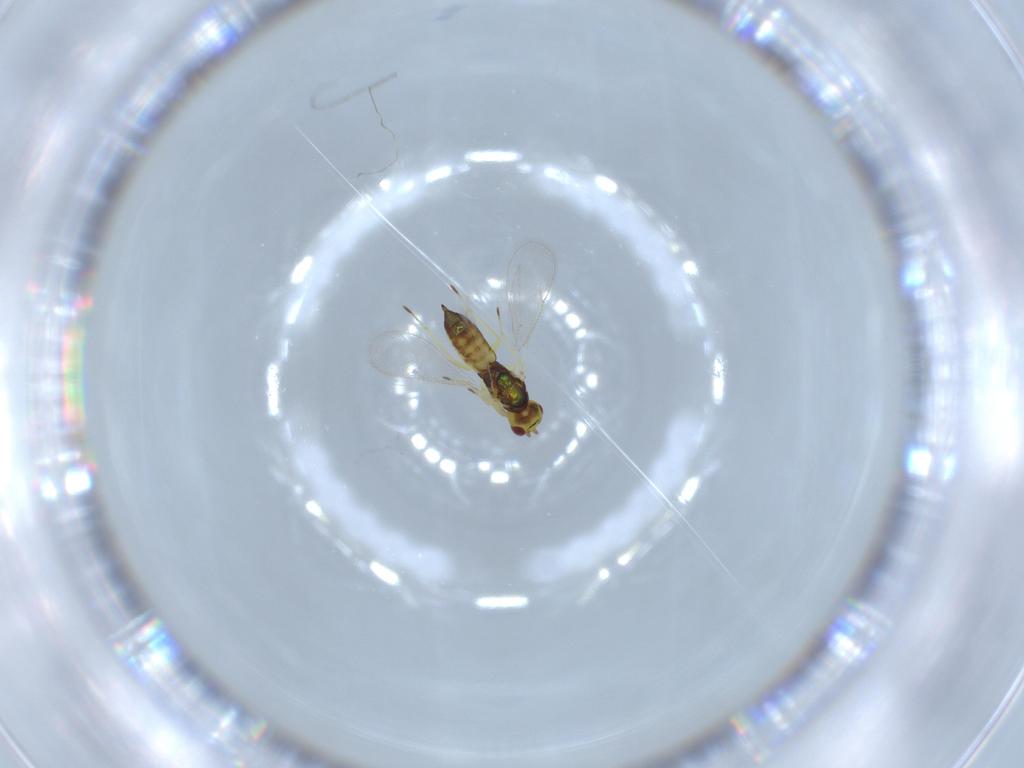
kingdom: Animalia
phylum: Arthropoda
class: Insecta
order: Hymenoptera
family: Eulophidae
